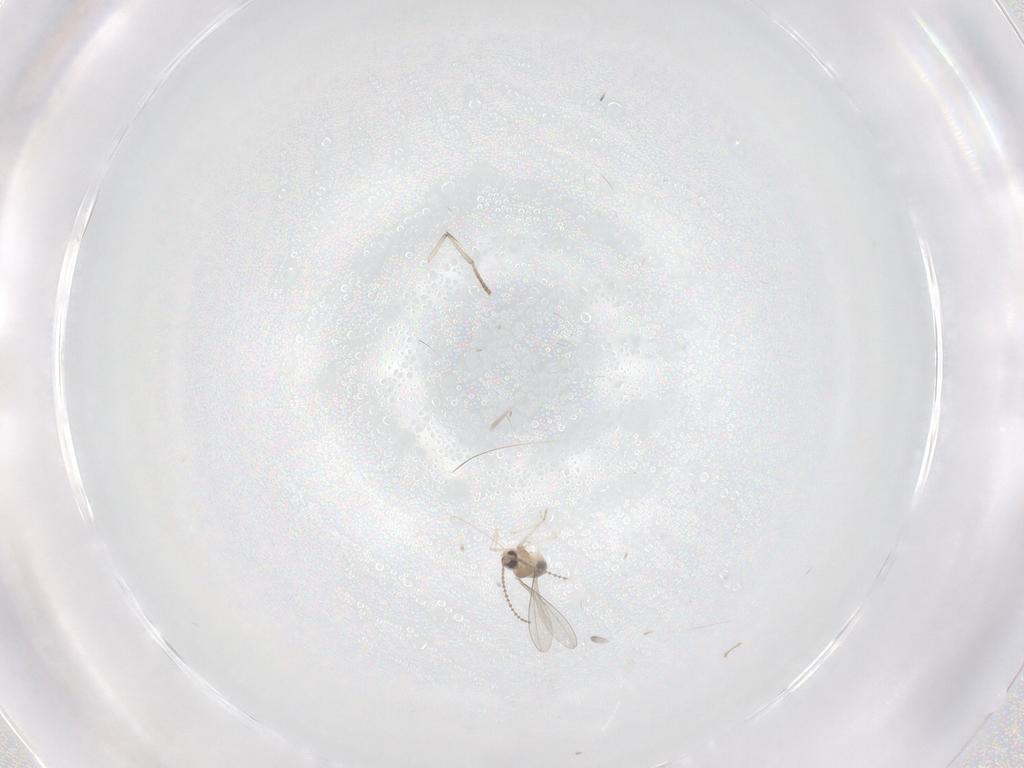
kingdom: Animalia
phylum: Arthropoda
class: Insecta
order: Diptera
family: Cecidomyiidae
